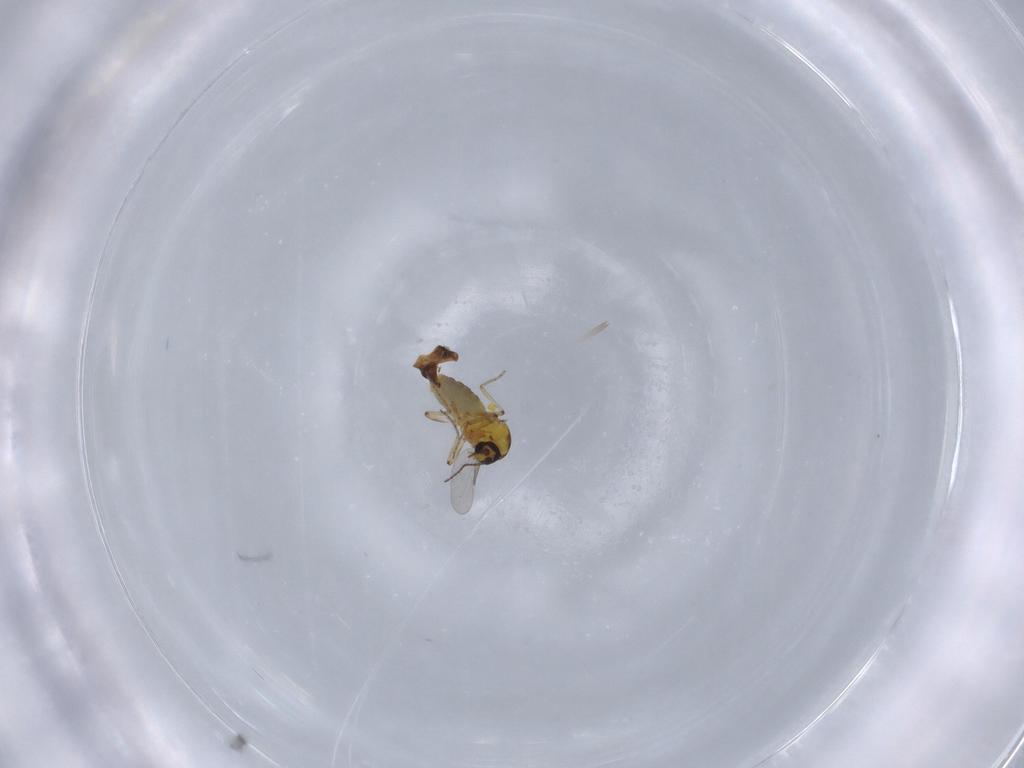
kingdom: Animalia
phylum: Arthropoda
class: Insecta
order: Diptera
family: Ceratopogonidae
